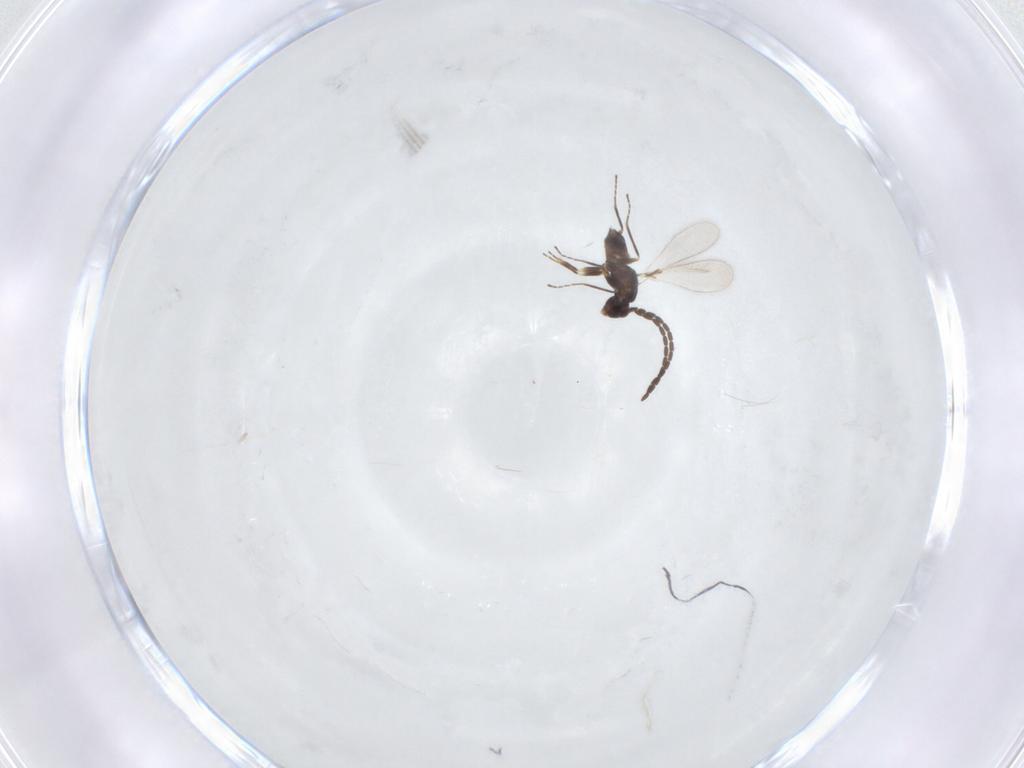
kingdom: Animalia
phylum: Arthropoda
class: Insecta
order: Hymenoptera
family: Mymaridae
